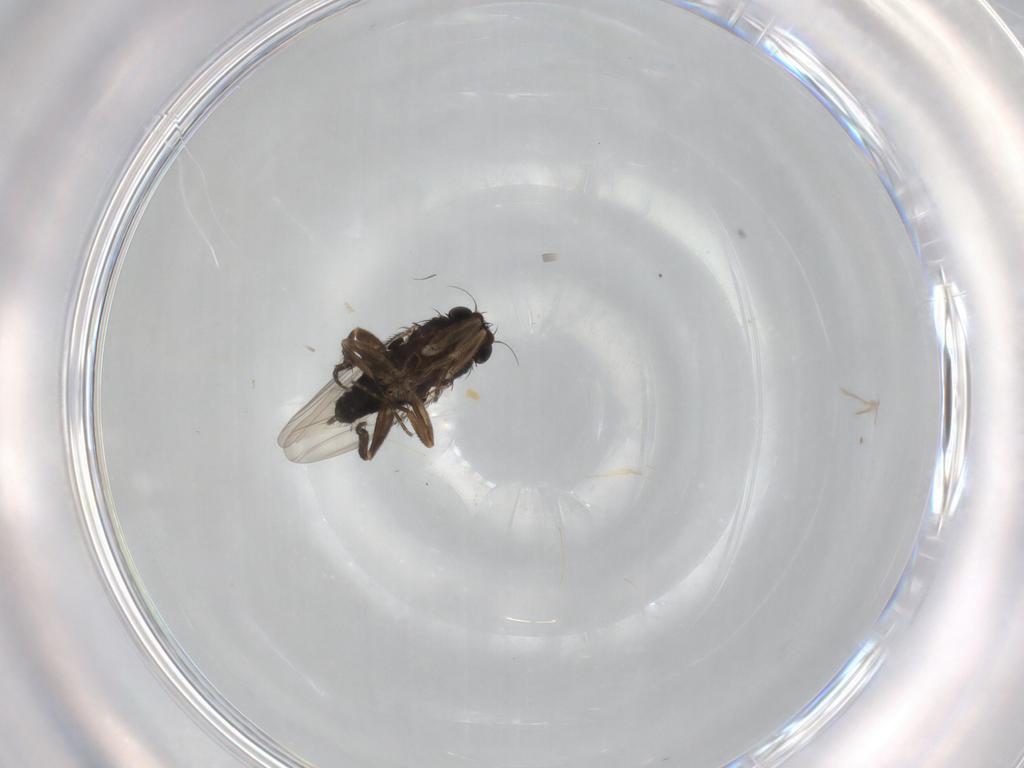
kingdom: Animalia
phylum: Arthropoda
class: Insecta
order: Diptera
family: Phoridae
